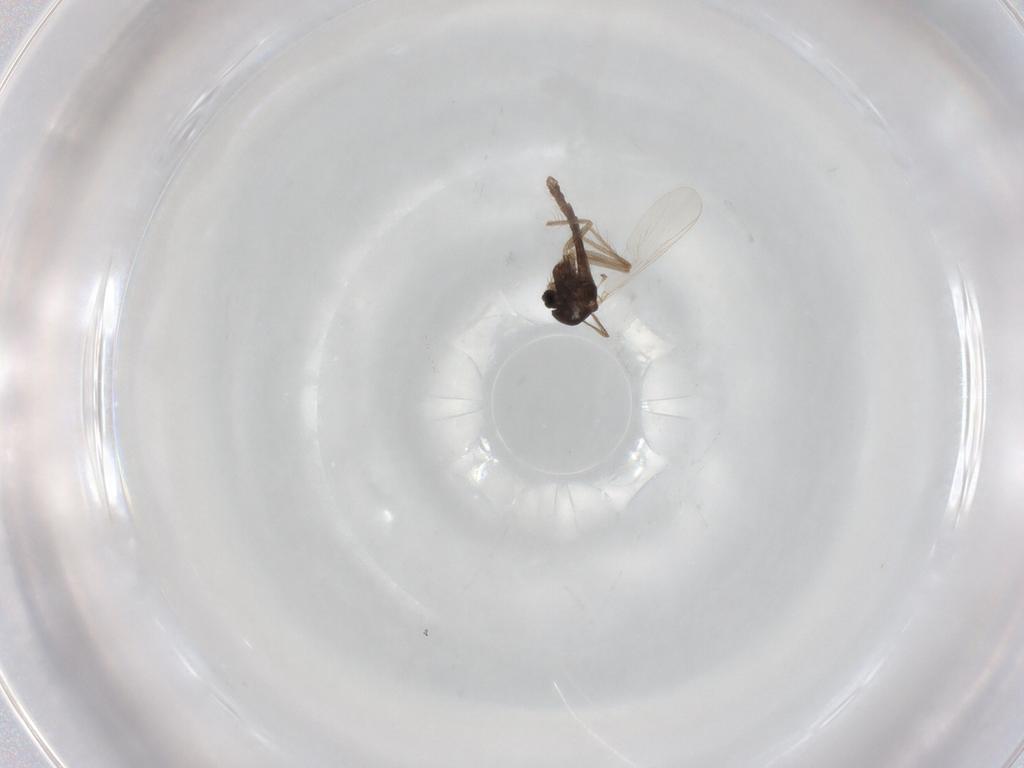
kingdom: Animalia
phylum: Arthropoda
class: Insecta
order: Diptera
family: Chironomidae
